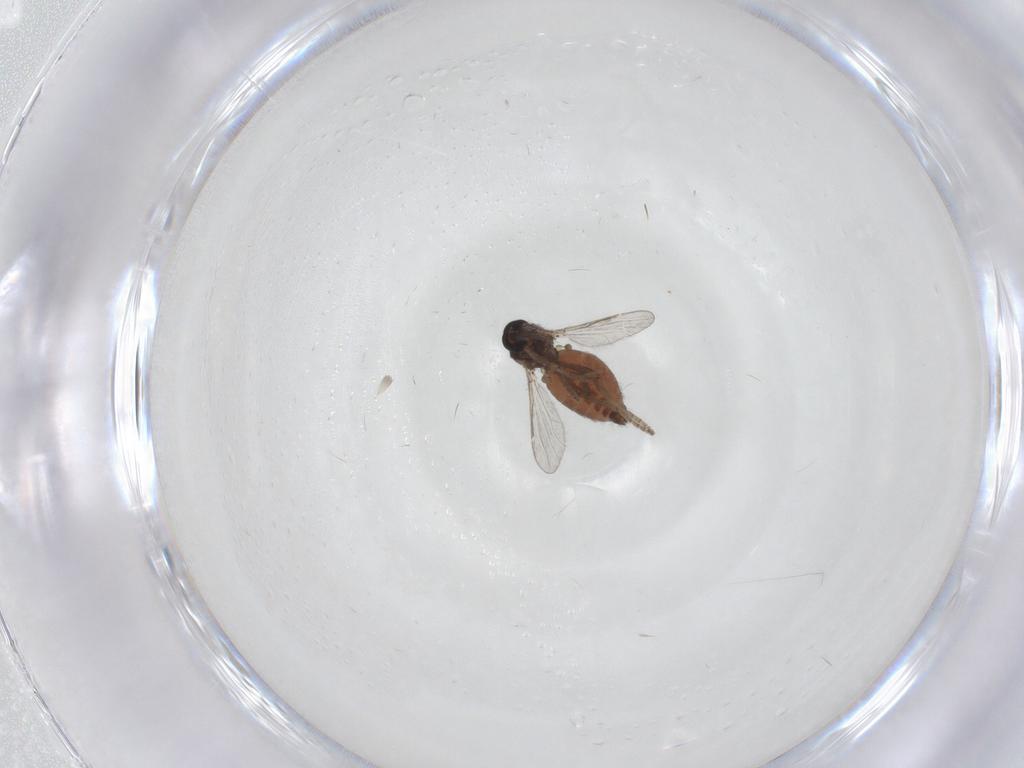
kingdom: Animalia
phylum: Arthropoda
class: Insecta
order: Diptera
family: Ceratopogonidae
